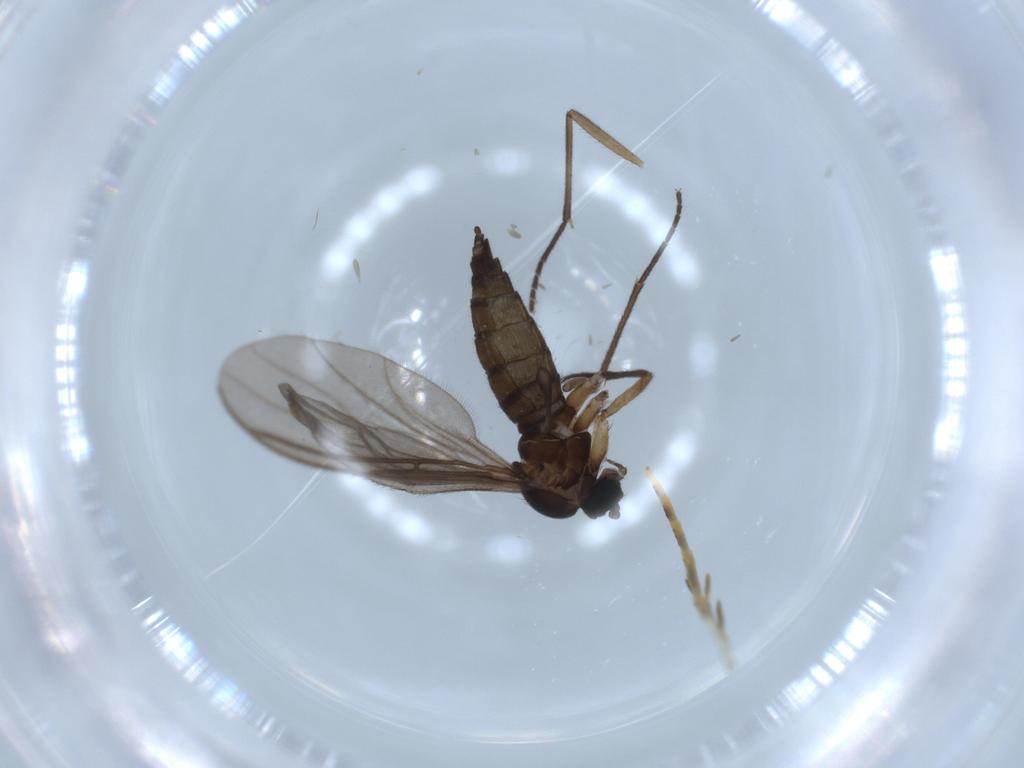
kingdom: Animalia
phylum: Arthropoda
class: Insecta
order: Diptera
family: Sciaridae
